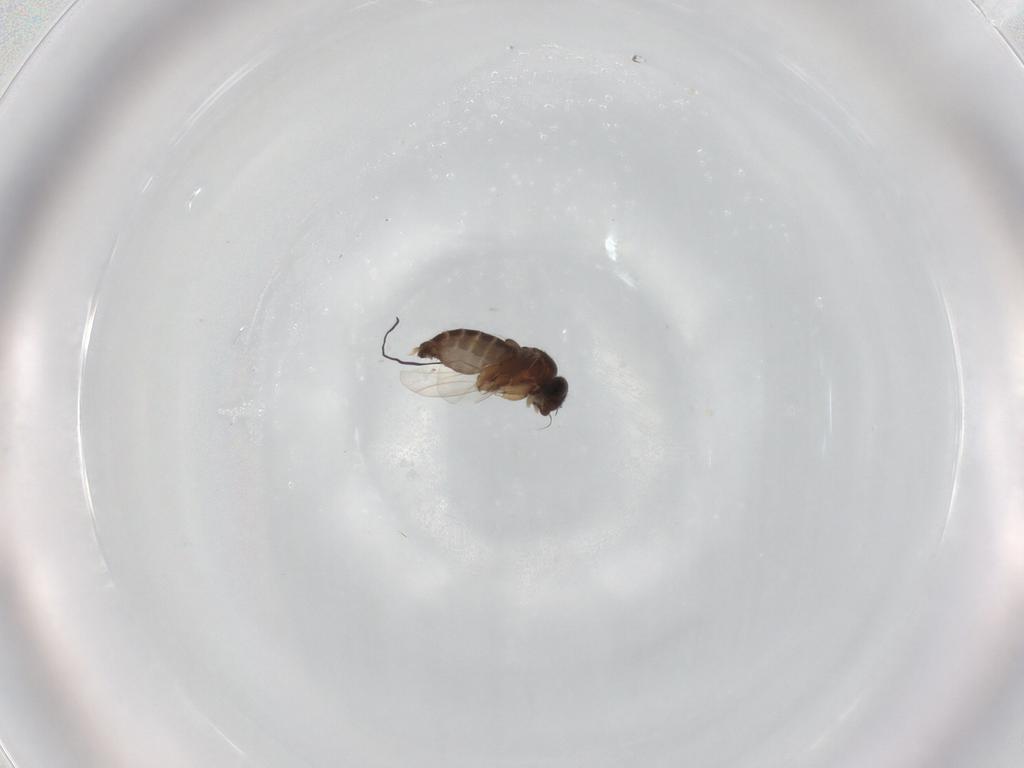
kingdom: Animalia
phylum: Arthropoda
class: Insecta
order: Diptera
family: Phoridae
